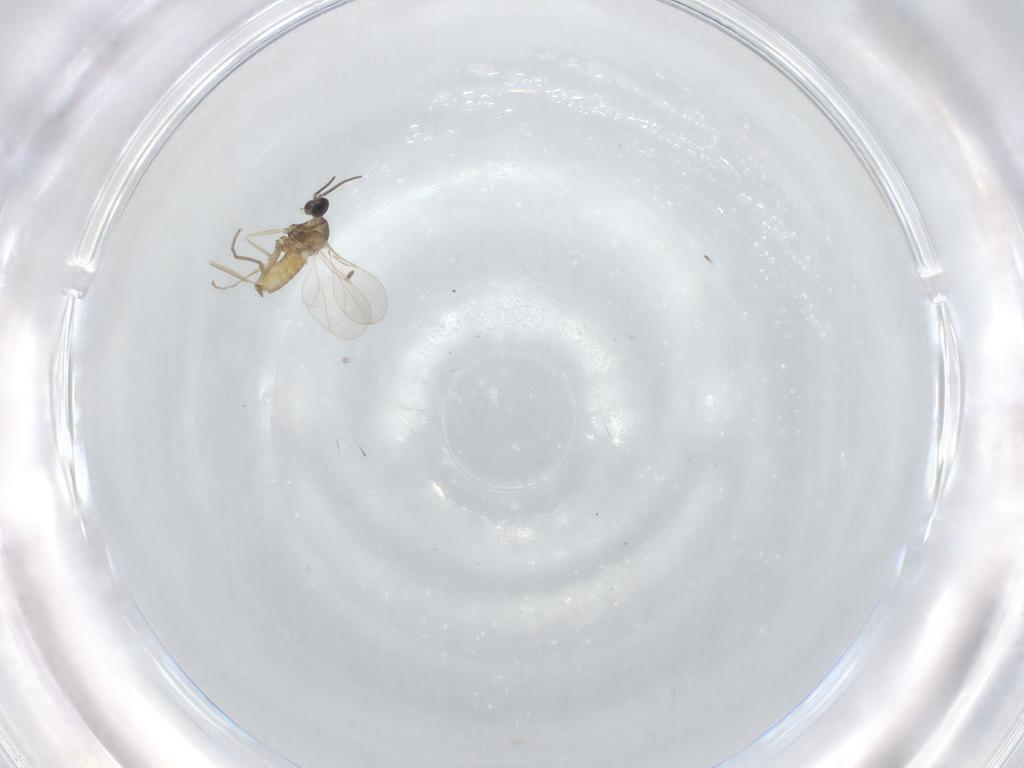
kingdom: Animalia
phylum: Arthropoda
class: Insecta
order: Diptera
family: Cecidomyiidae
